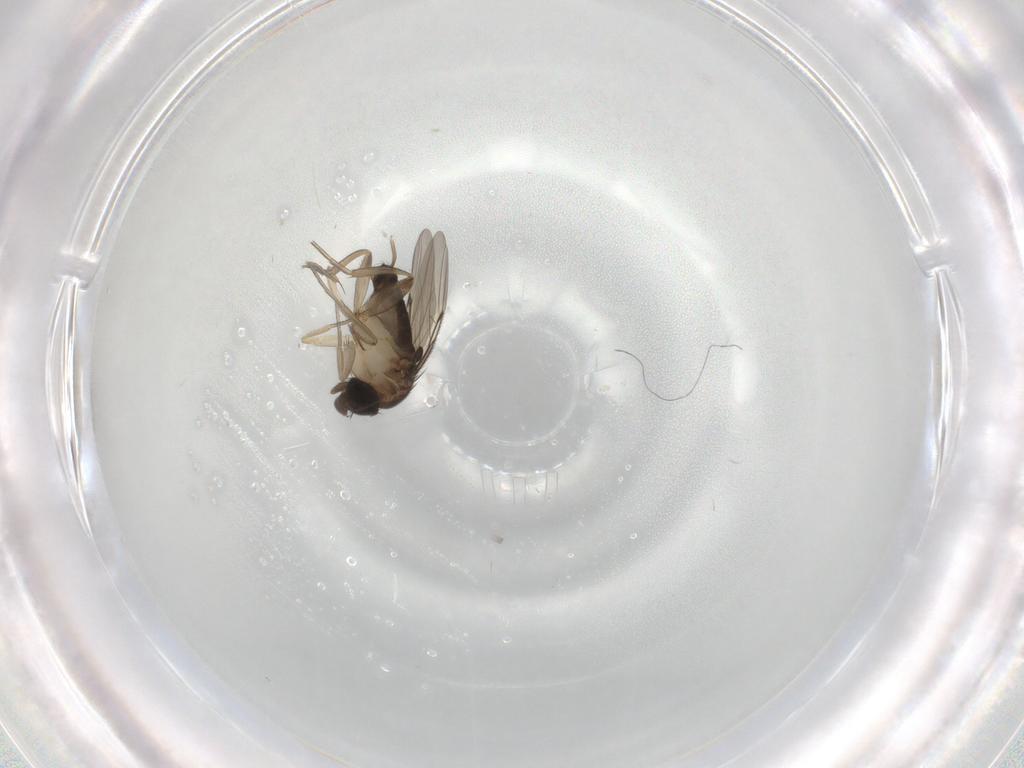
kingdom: Animalia
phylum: Arthropoda
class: Insecta
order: Diptera
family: Phoridae
